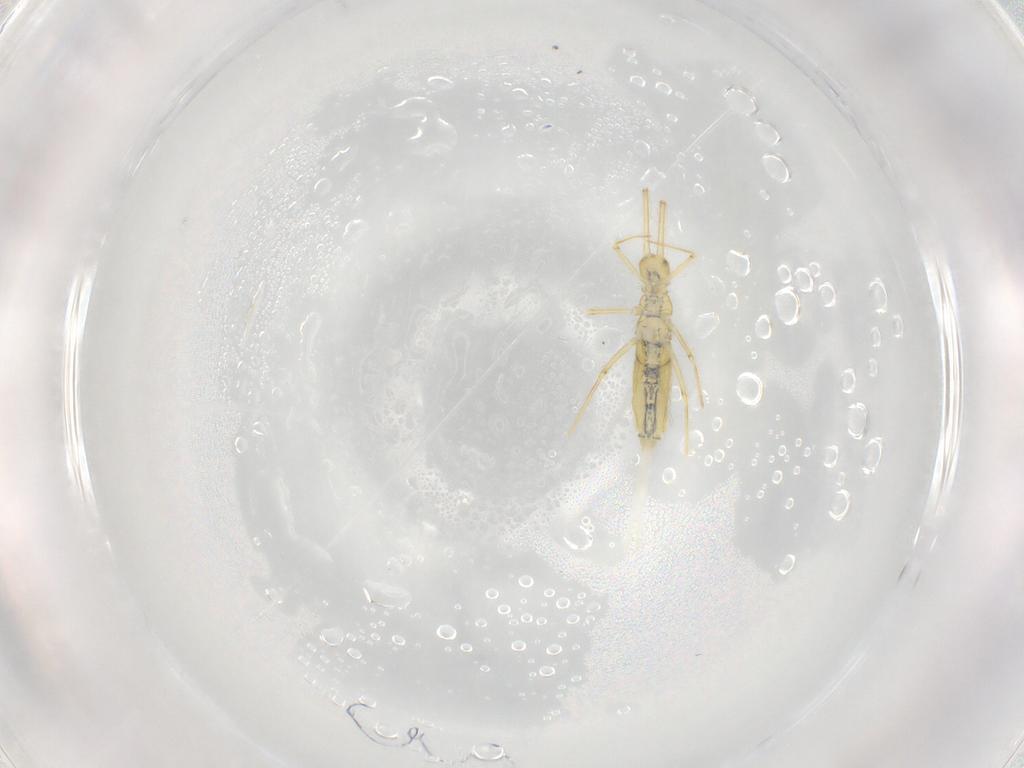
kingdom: Animalia
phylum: Arthropoda
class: Collembola
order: Entomobryomorpha
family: Paronellidae
